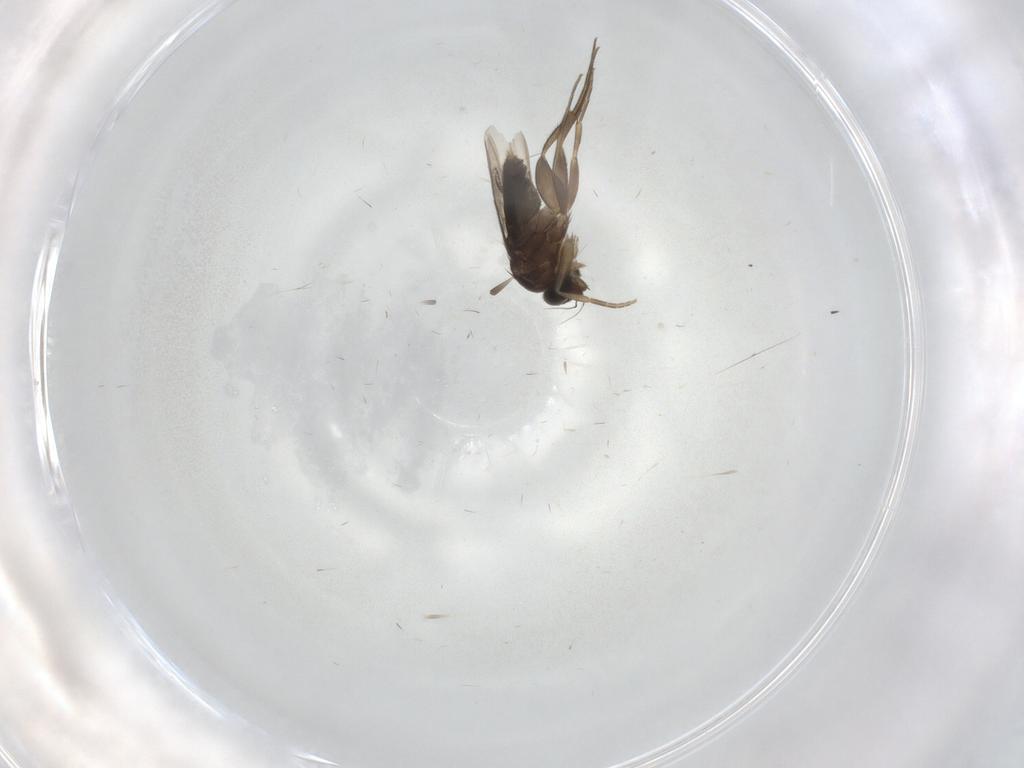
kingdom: Animalia
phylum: Arthropoda
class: Insecta
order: Diptera
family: Phoridae
